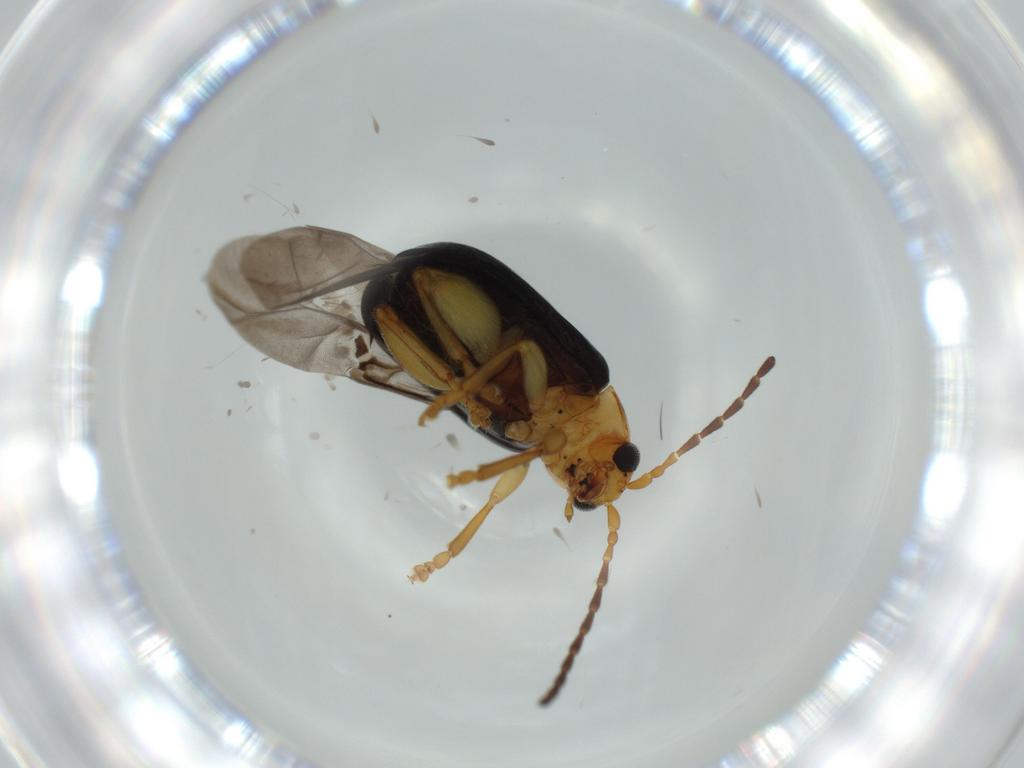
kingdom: Animalia
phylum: Arthropoda
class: Insecta
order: Coleoptera
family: Chrysomelidae
